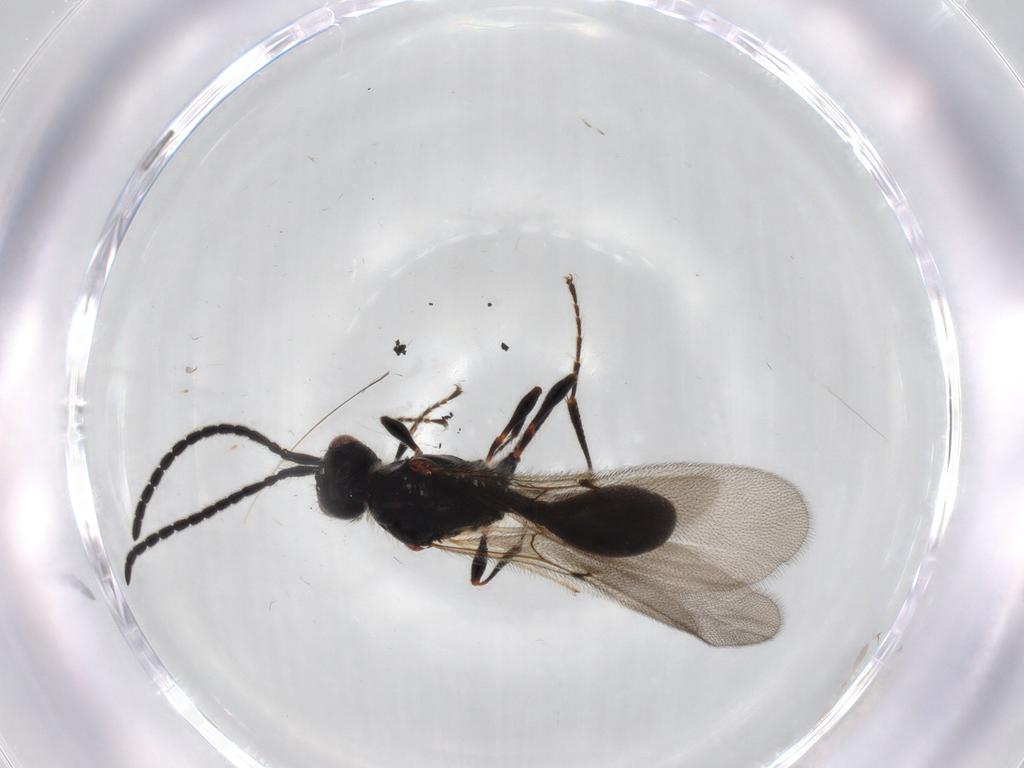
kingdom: Animalia
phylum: Arthropoda
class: Insecta
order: Hymenoptera
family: Diapriidae
